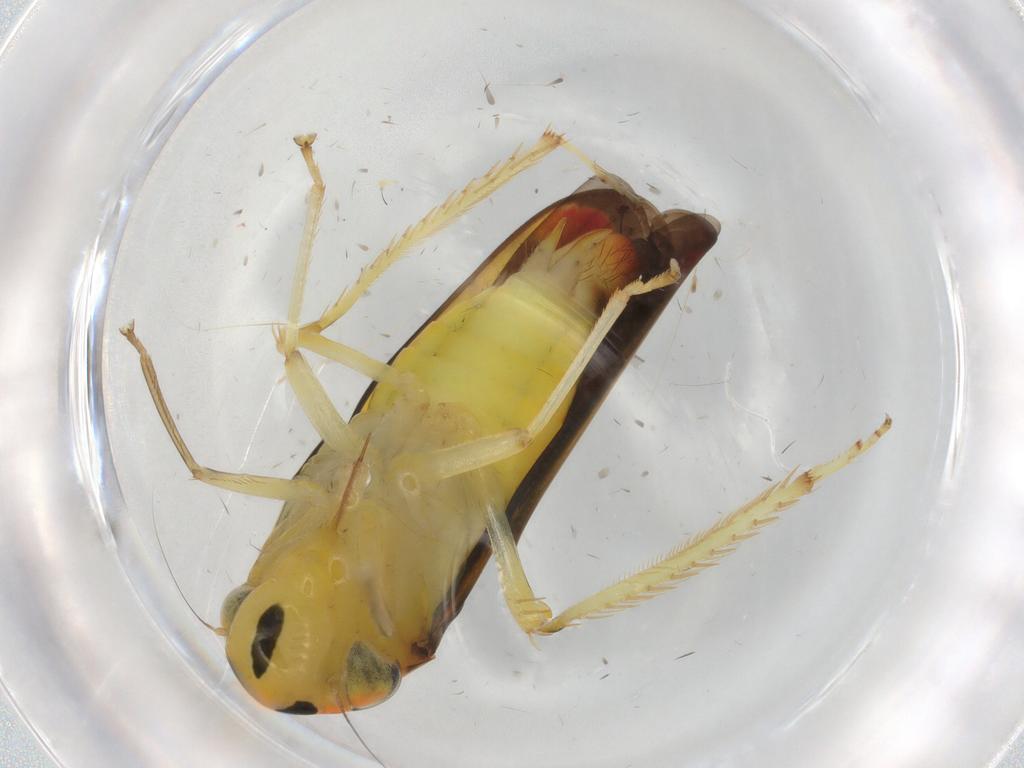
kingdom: Animalia
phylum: Arthropoda
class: Insecta
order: Hemiptera
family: Cicadellidae
